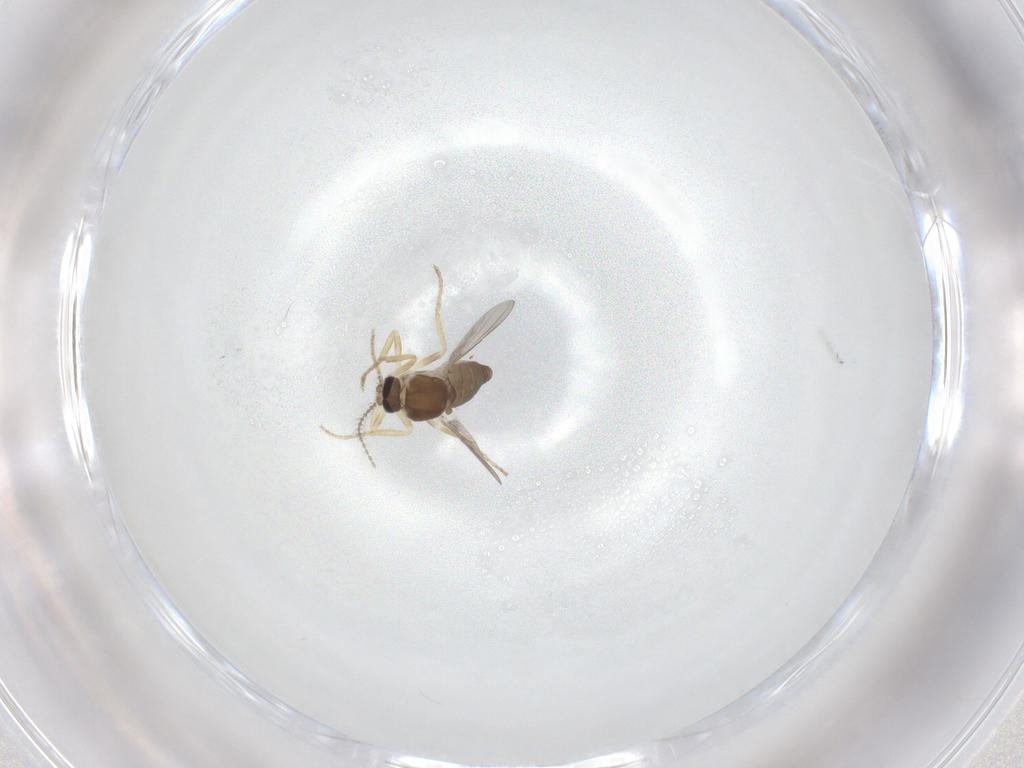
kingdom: Animalia
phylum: Arthropoda
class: Insecta
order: Diptera
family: Ceratopogonidae
